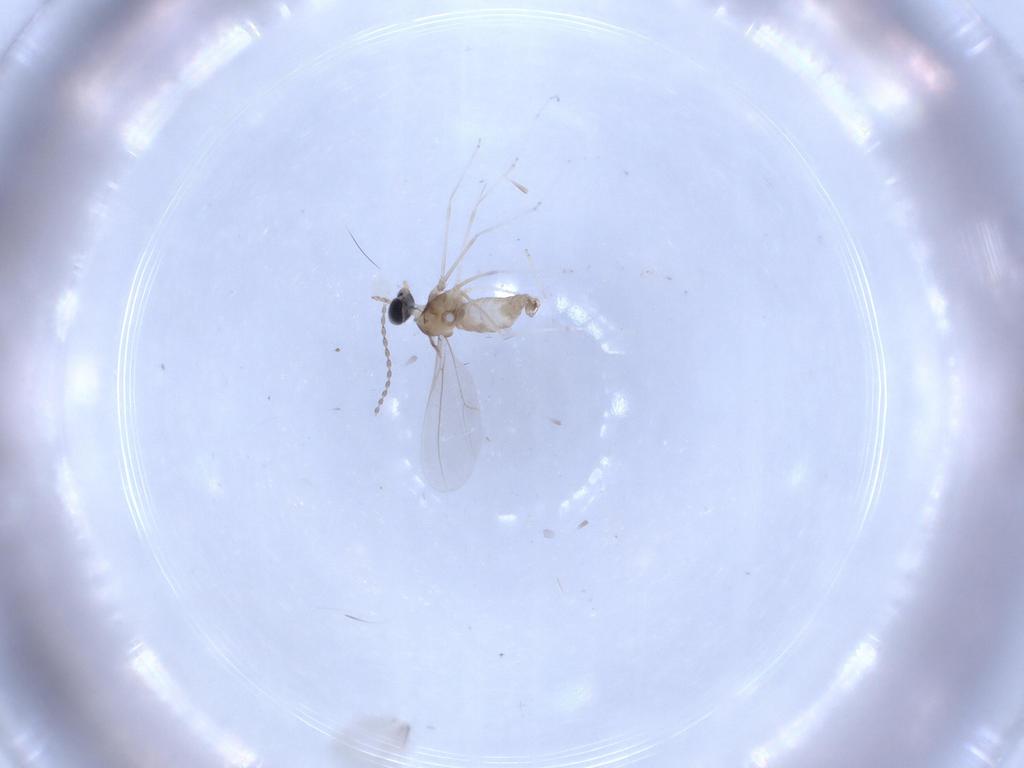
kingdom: Animalia
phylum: Arthropoda
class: Insecta
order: Diptera
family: Cecidomyiidae
